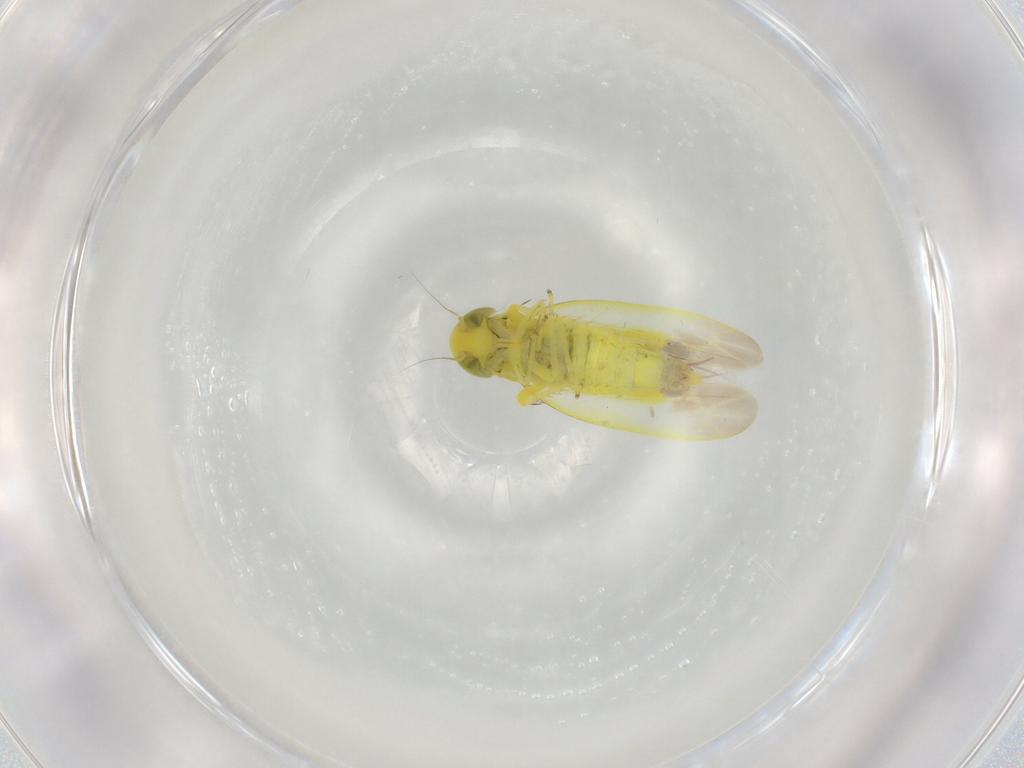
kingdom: Animalia
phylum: Arthropoda
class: Insecta
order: Hemiptera
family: Cicadellidae
